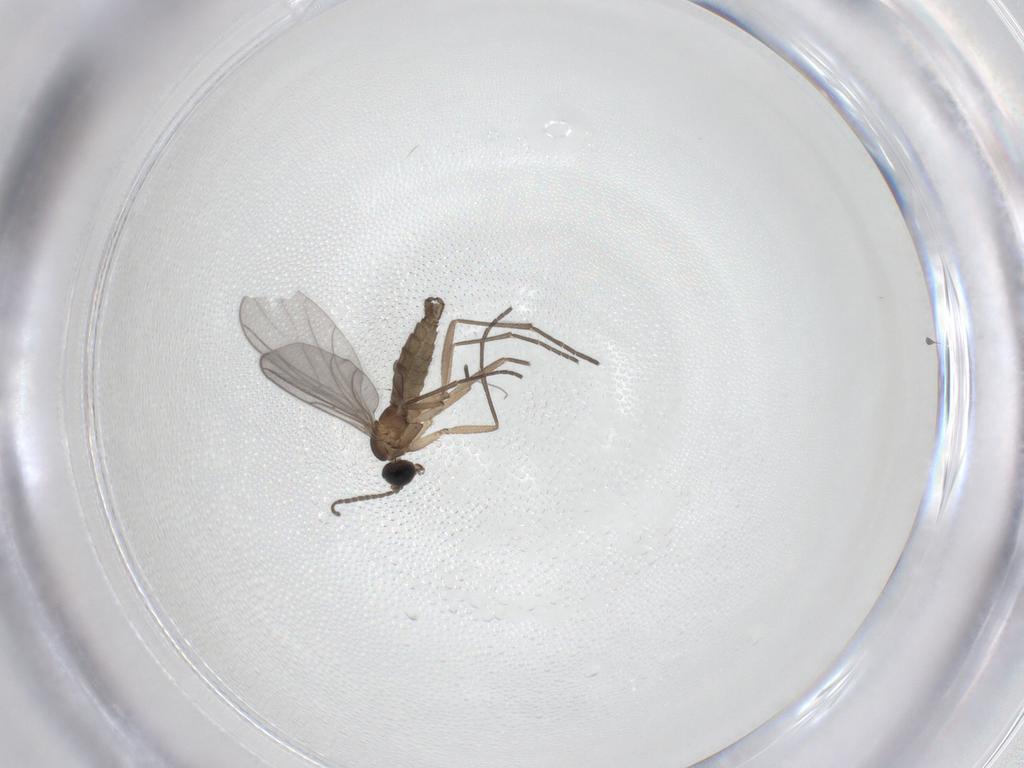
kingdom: Animalia
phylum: Arthropoda
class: Insecta
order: Diptera
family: Sciaridae
